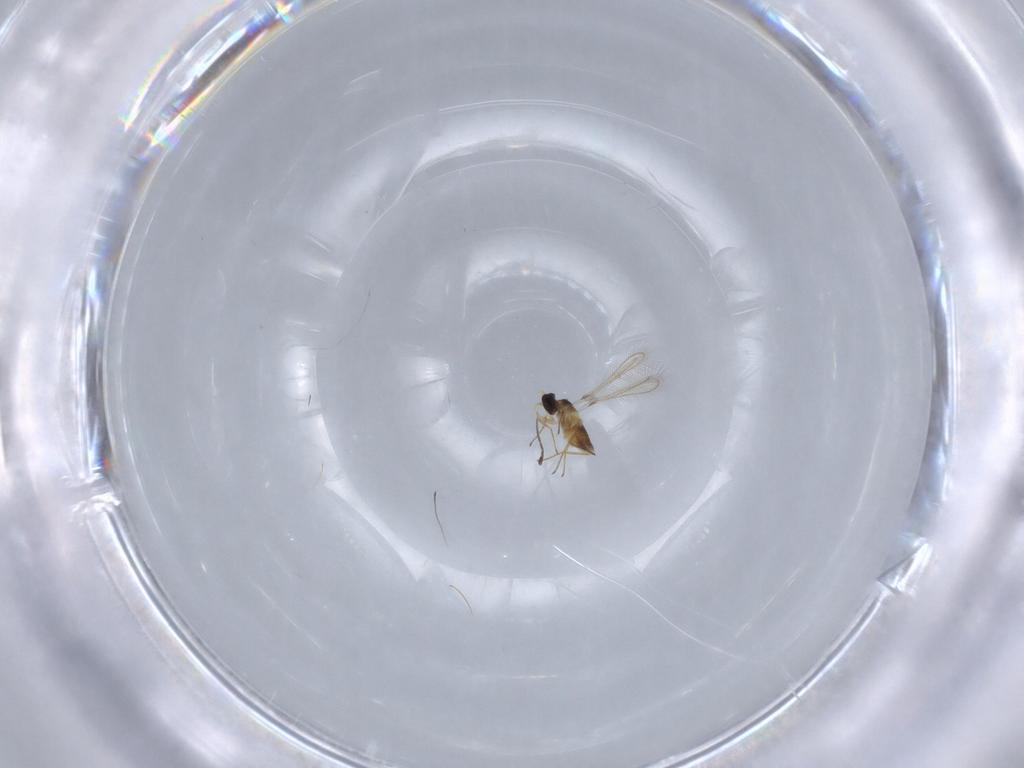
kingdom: Animalia
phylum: Arthropoda
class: Insecta
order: Hymenoptera
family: Mymaridae
